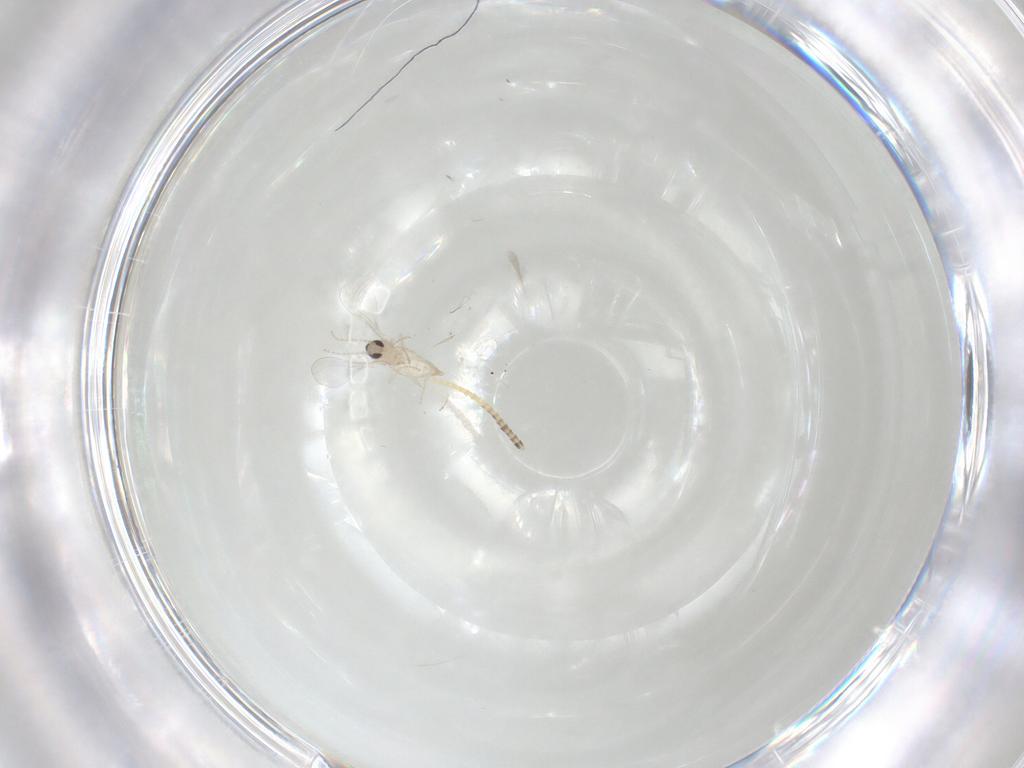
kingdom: Animalia
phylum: Arthropoda
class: Insecta
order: Diptera
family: Cecidomyiidae
